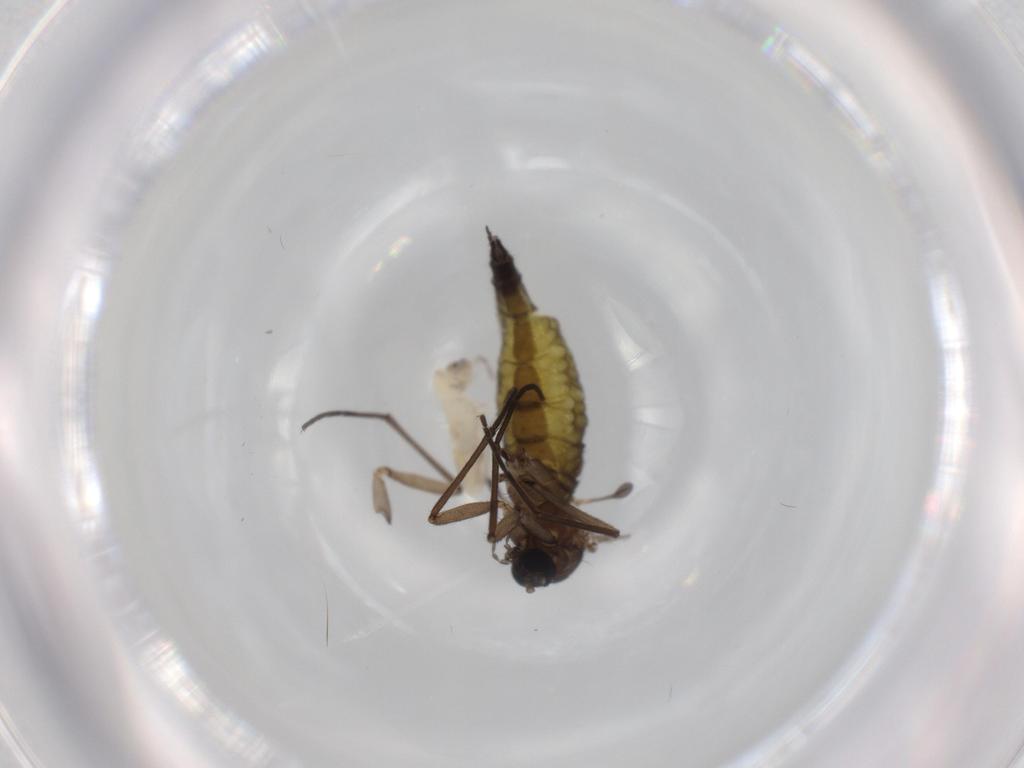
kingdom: Animalia
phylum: Arthropoda
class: Insecta
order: Diptera
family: Sciaridae
